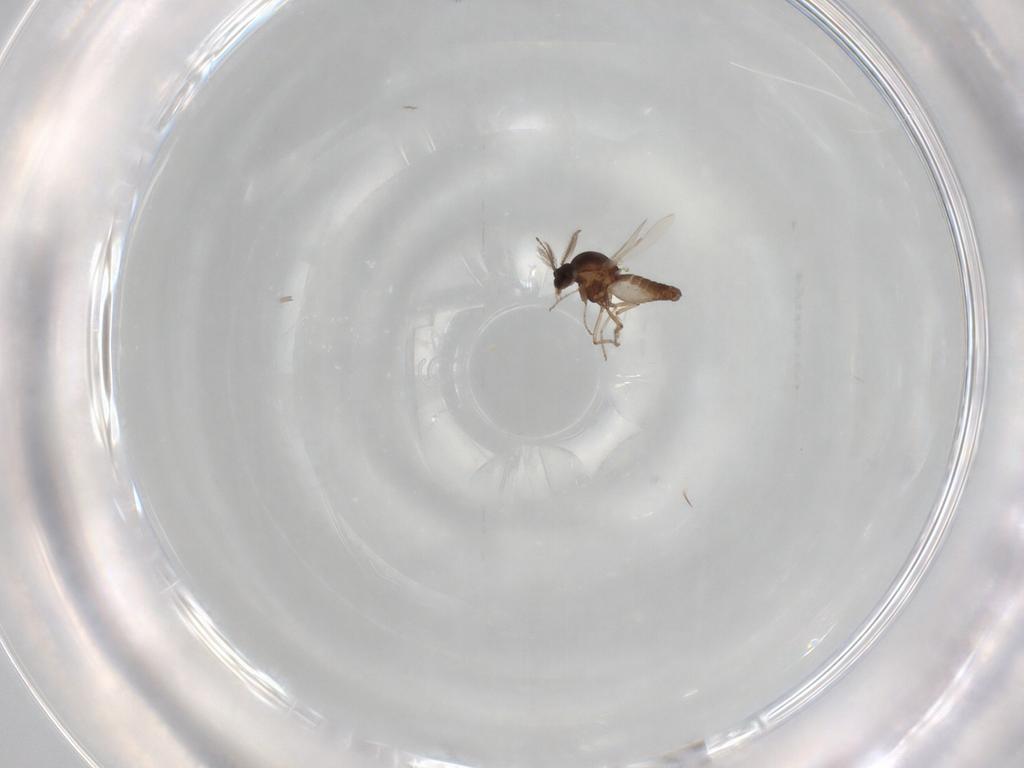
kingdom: Animalia
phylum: Arthropoda
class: Insecta
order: Diptera
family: Ceratopogonidae
